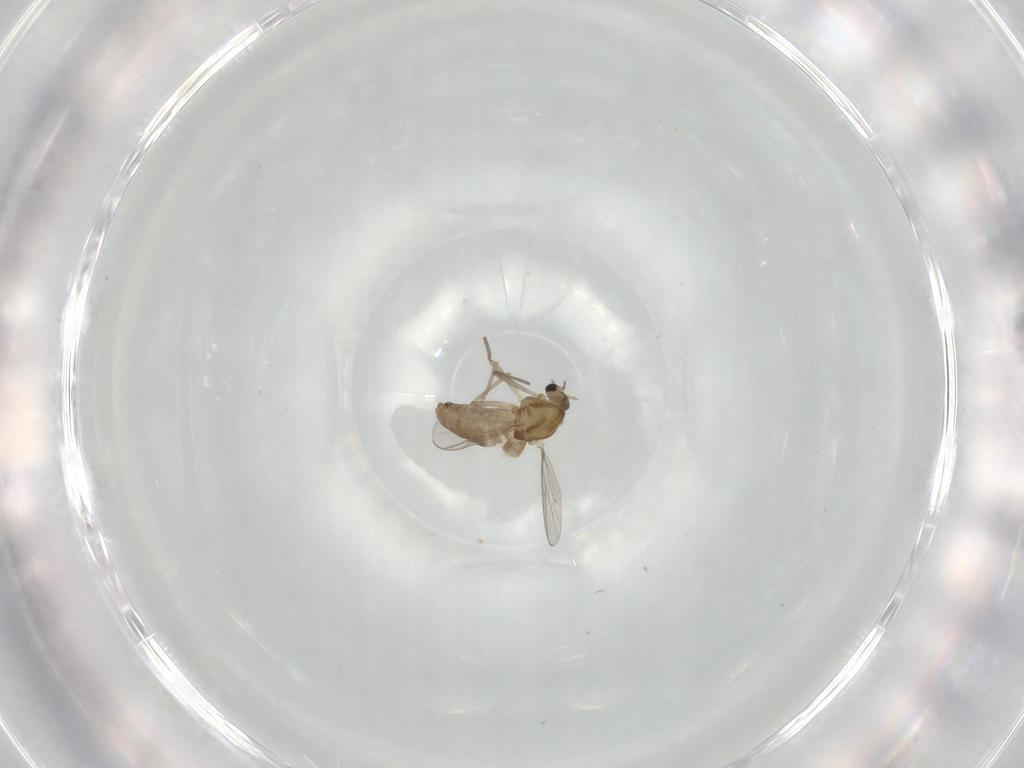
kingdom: Animalia
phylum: Arthropoda
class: Insecta
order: Diptera
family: Chironomidae
